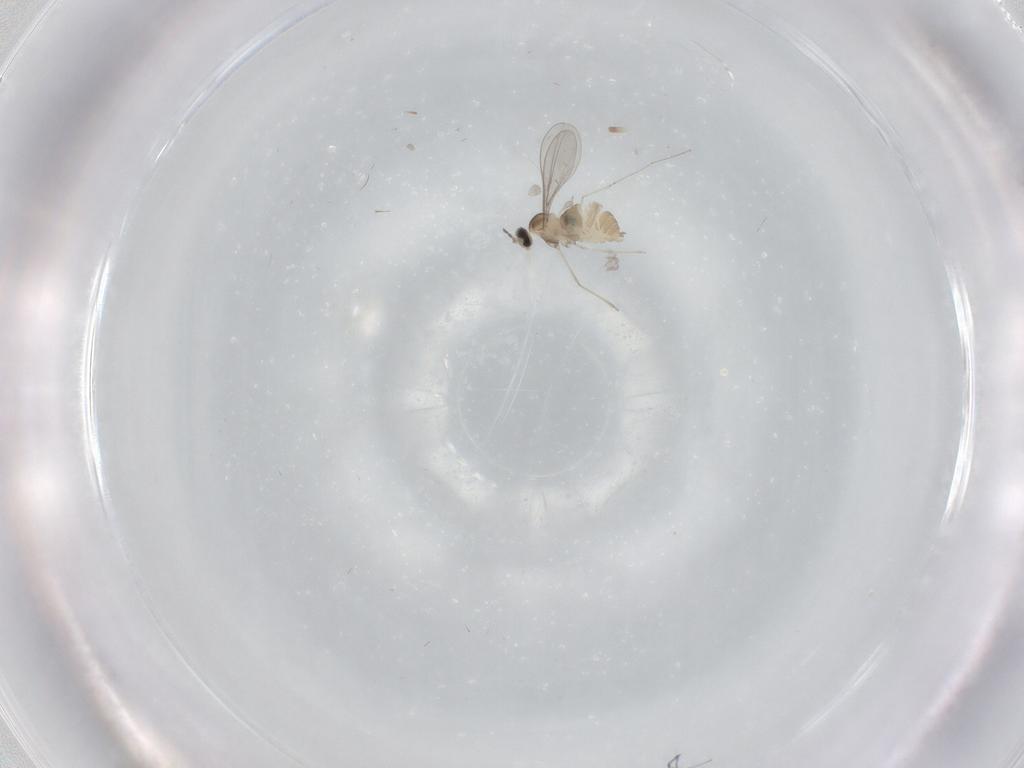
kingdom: Animalia
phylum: Arthropoda
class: Insecta
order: Diptera
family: Cecidomyiidae
